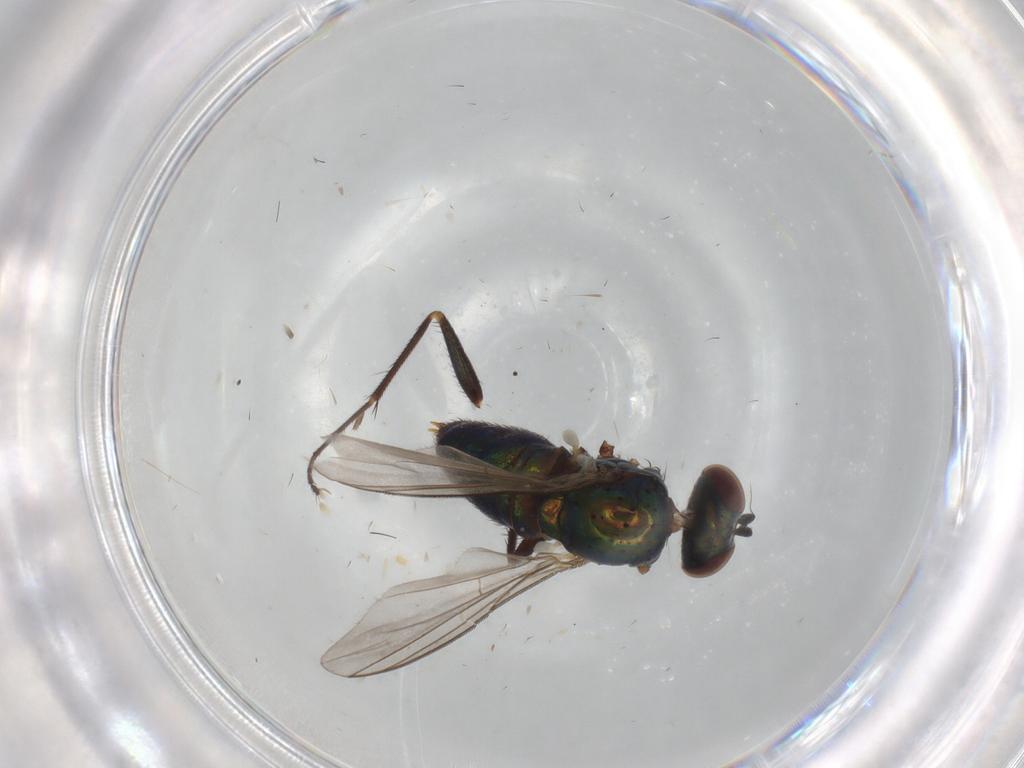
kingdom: Animalia
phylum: Arthropoda
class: Insecta
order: Diptera
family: Dolichopodidae
